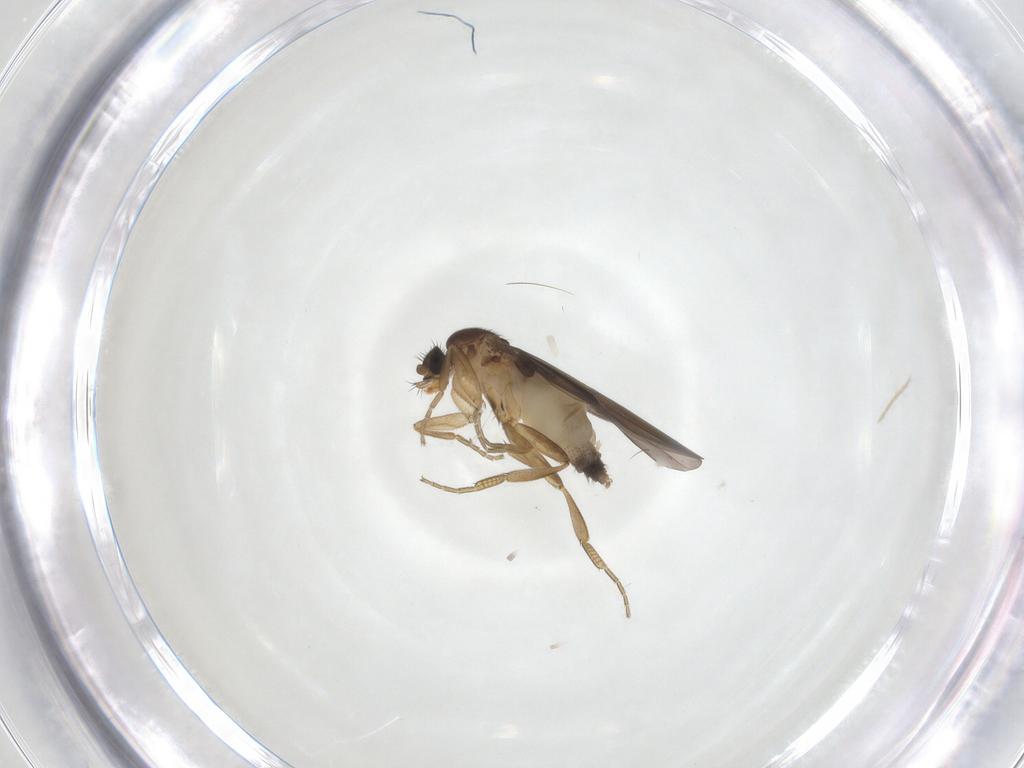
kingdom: Animalia
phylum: Arthropoda
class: Insecta
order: Diptera
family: Phoridae
